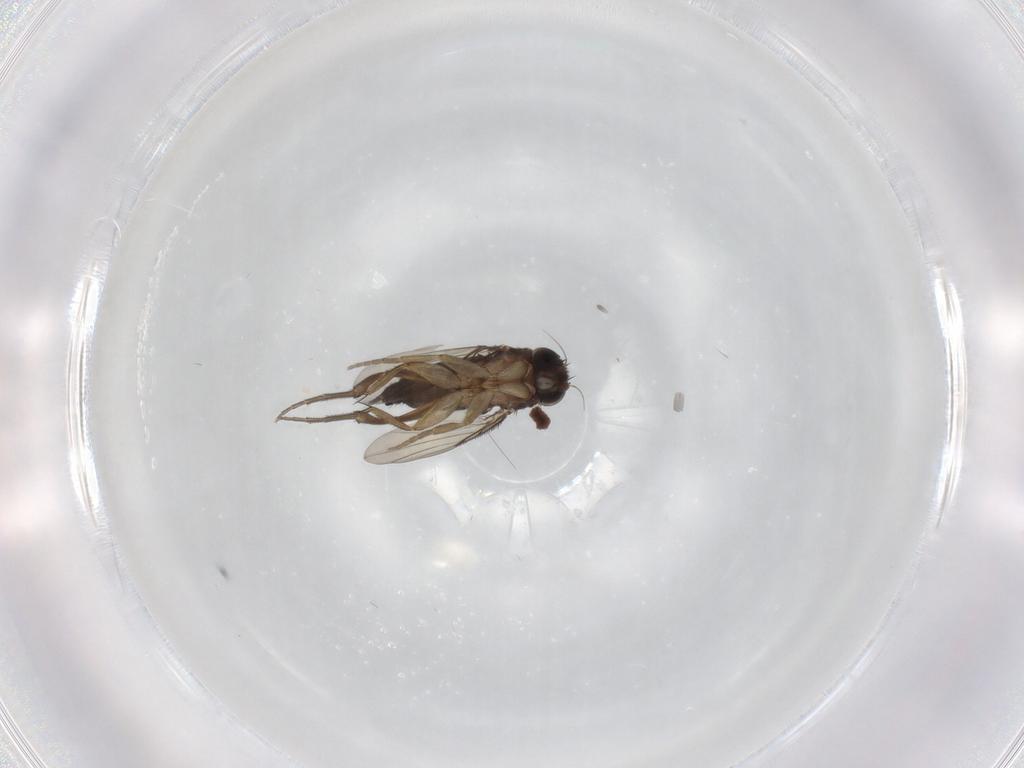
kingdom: Animalia
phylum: Arthropoda
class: Insecta
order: Diptera
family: Phoridae
